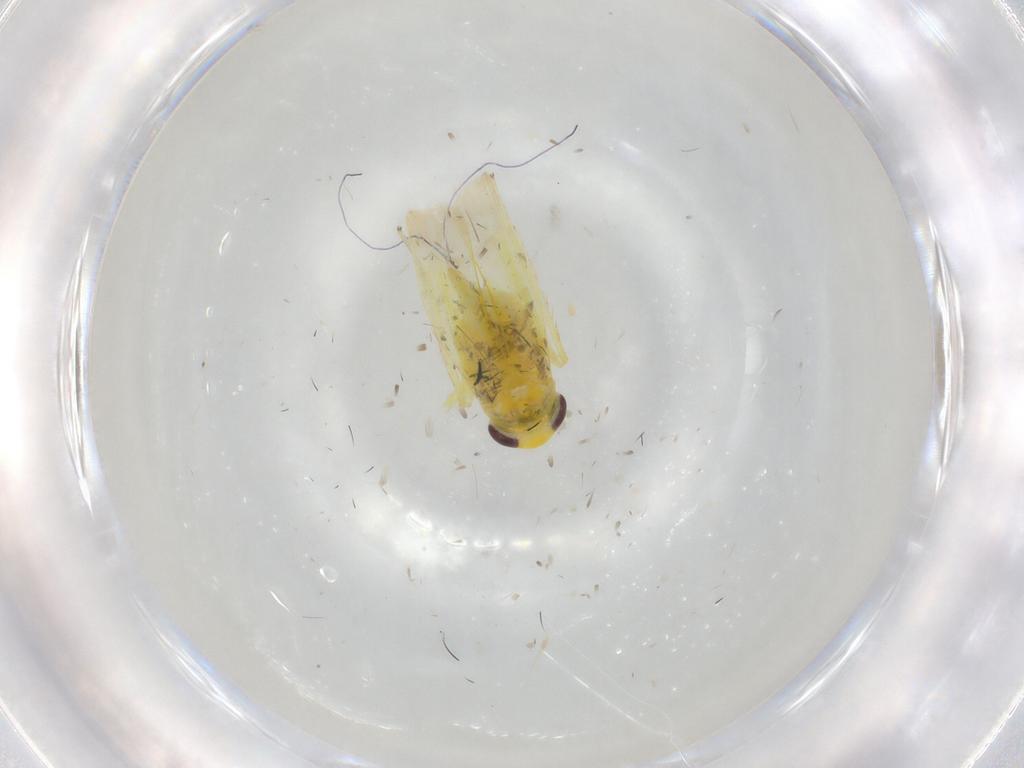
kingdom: Animalia
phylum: Arthropoda
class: Insecta
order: Hemiptera
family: Cicadellidae
